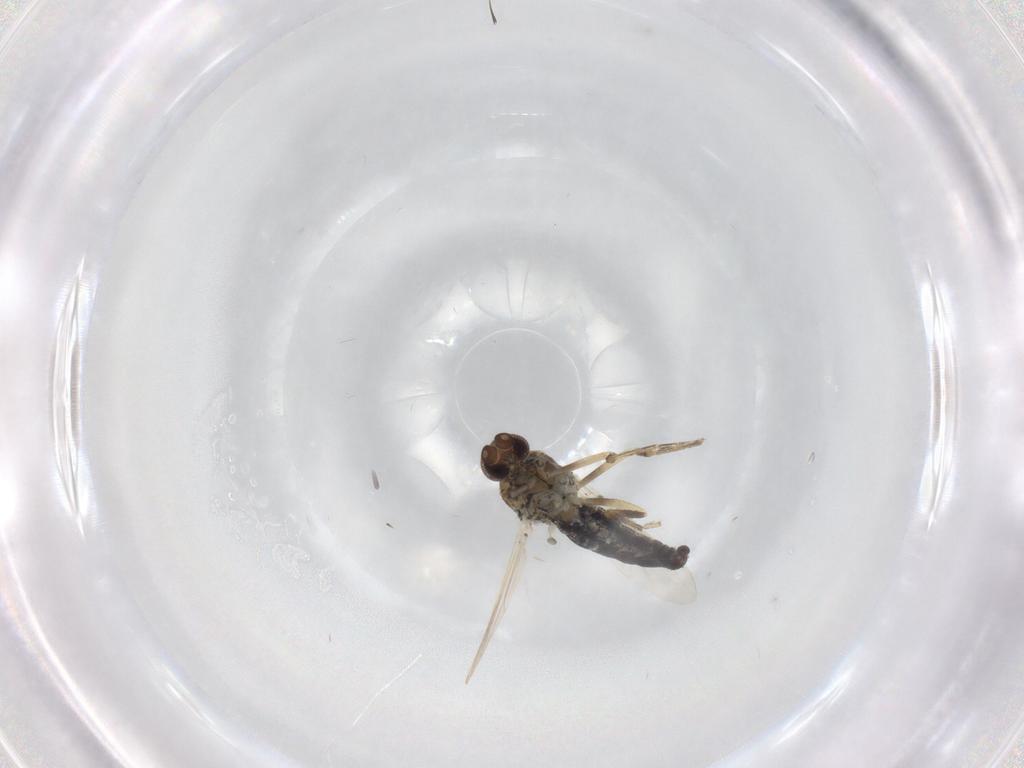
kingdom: Animalia
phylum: Arthropoda
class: Insecta
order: Diptera
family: Ceratopogonidae
